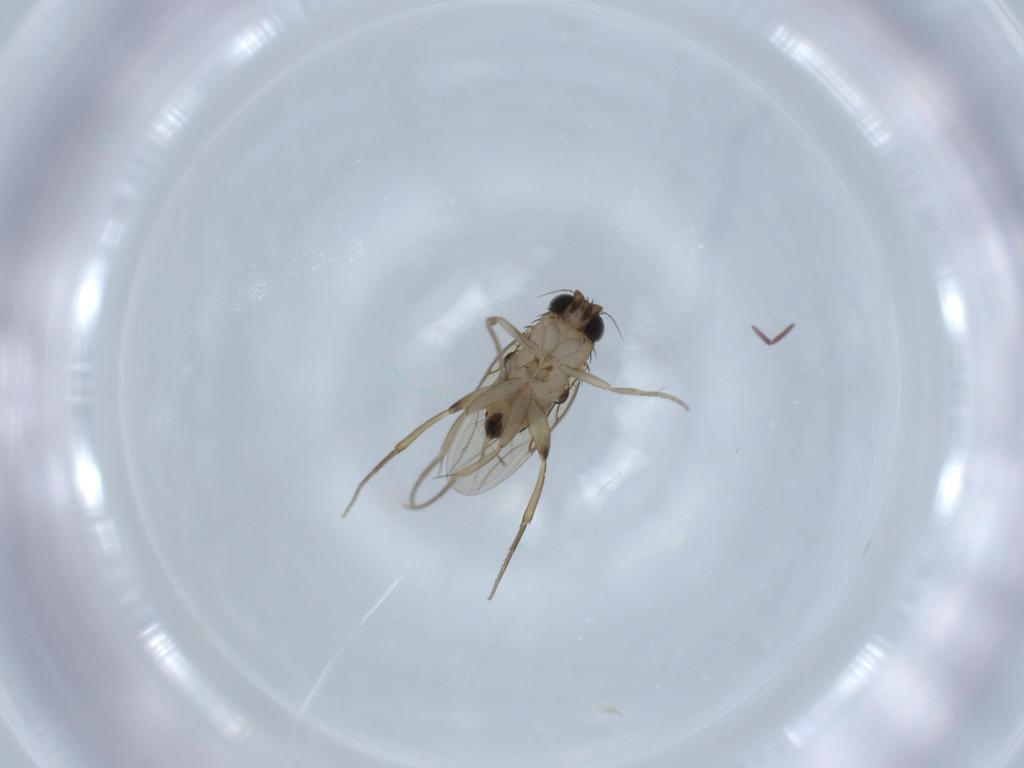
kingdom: Animalia
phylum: Arthropoda
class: Insecta
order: Diptera
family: Phoridae
